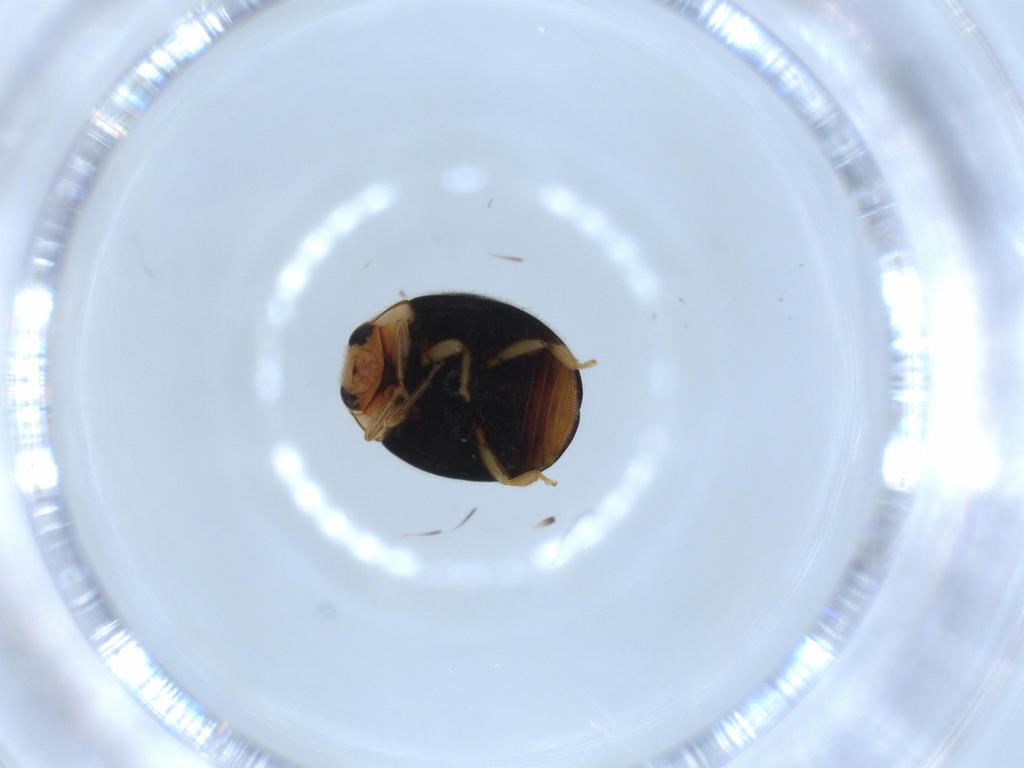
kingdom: Animalia
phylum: Arthropoda
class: Insecta
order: Coleoptera
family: Coccinellidae
